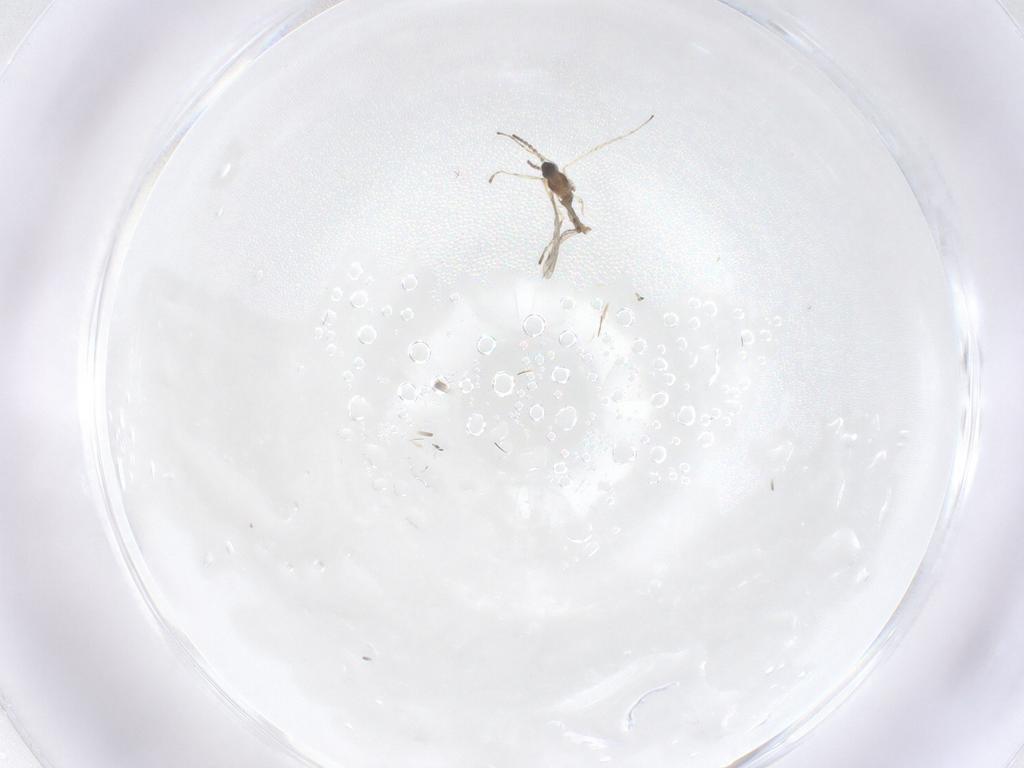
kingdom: Animalia
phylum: Arthropoda
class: Insecta
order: Diptera
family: Psychodidae
